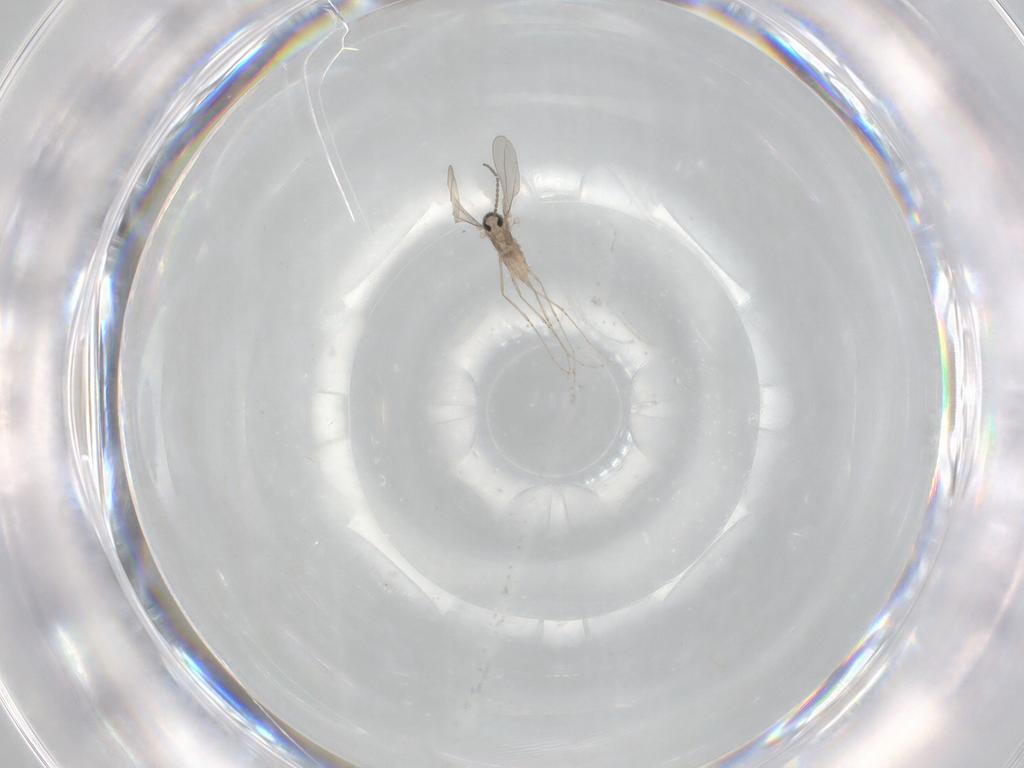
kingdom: Animalia
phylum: Arthropoda
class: Insecta
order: Diptera
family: Cecidomyiidae
